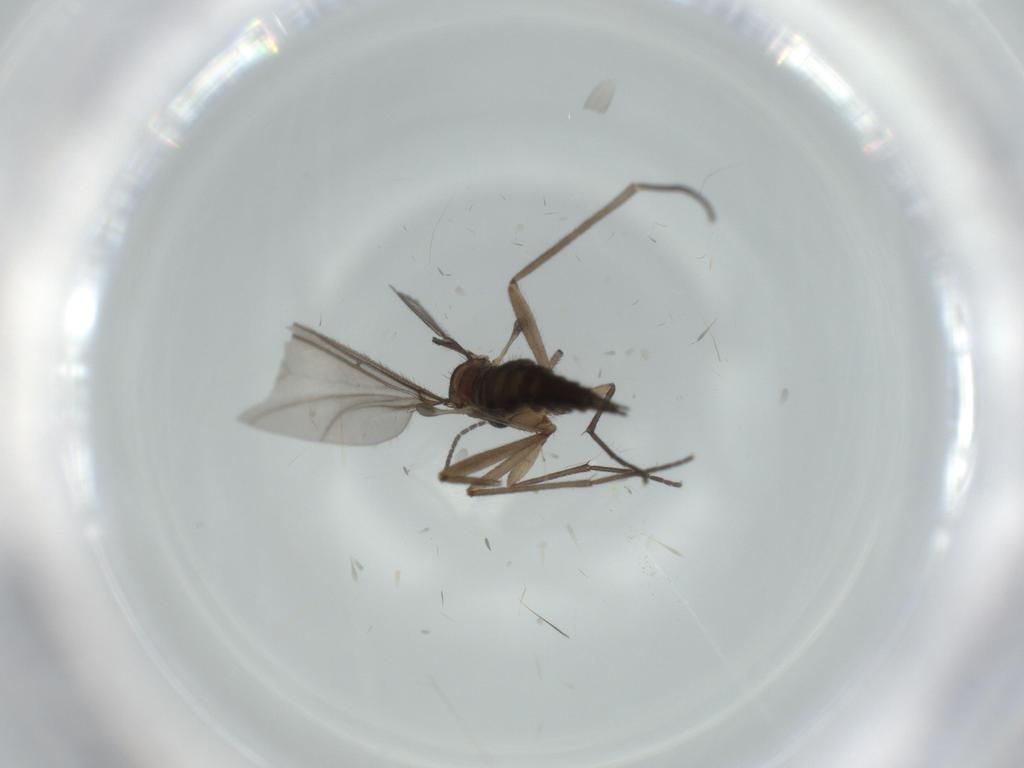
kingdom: Animalia
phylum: Arthropoda
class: Insecta
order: Diptera
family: Sciaridae
